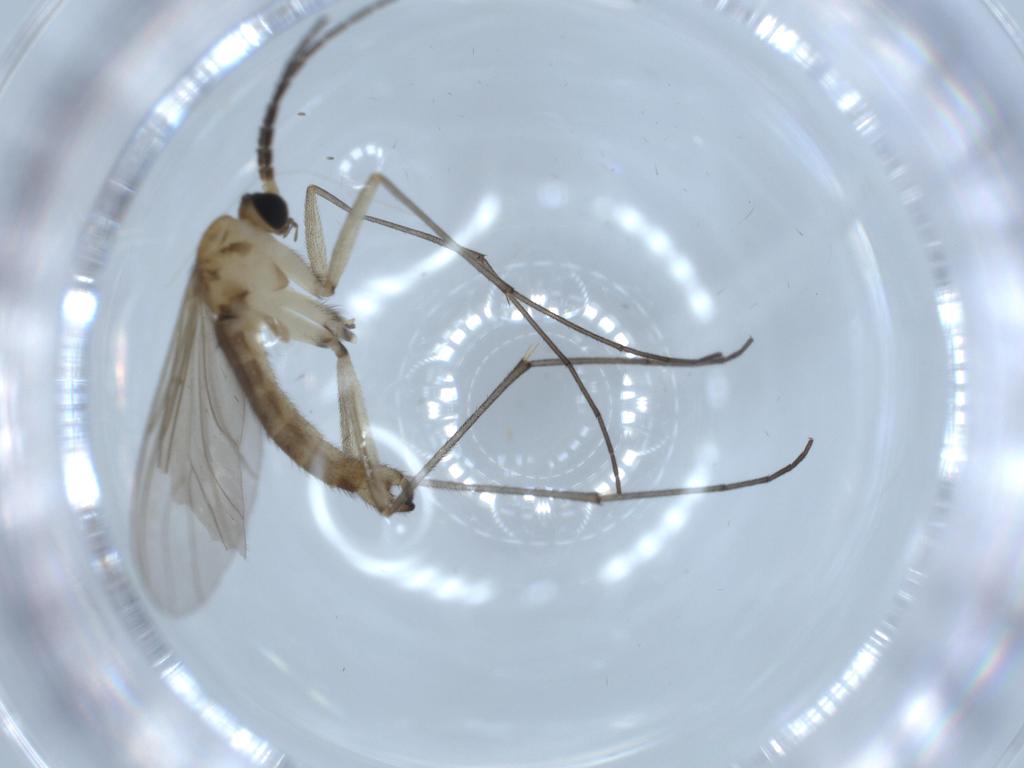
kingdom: Animalia
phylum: Arthropoda
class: Insecta
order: Diptera
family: Sciaridae
